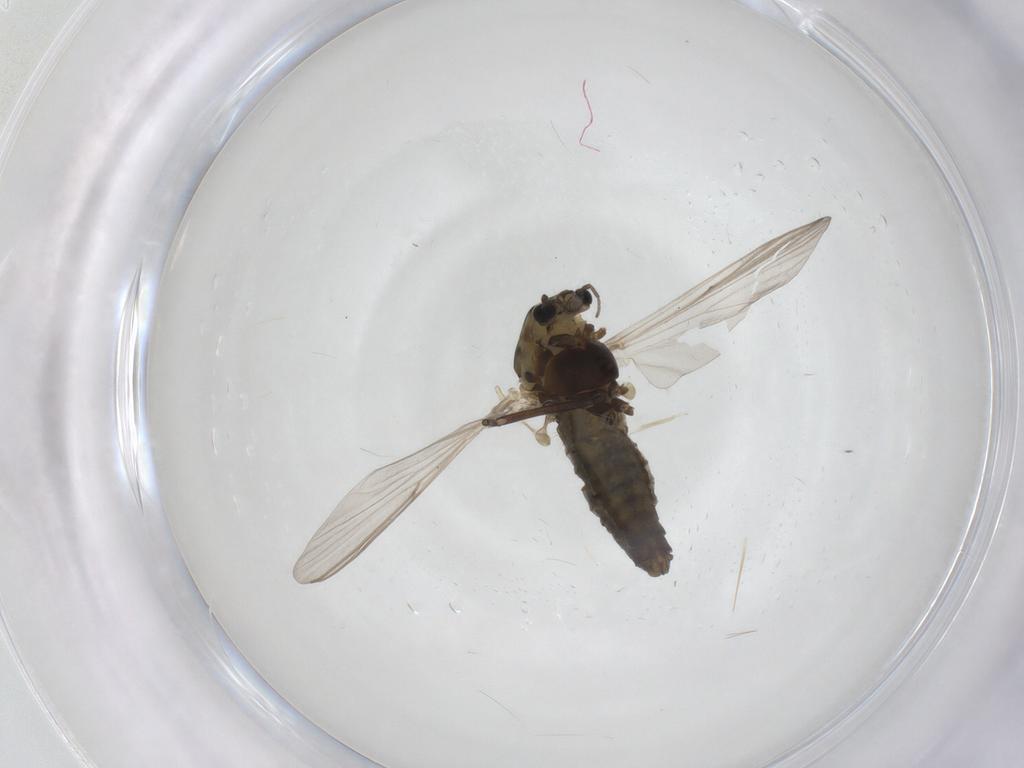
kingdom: Animalia
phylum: Arthropoda
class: Insecta
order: Diptera
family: Chironomidae
